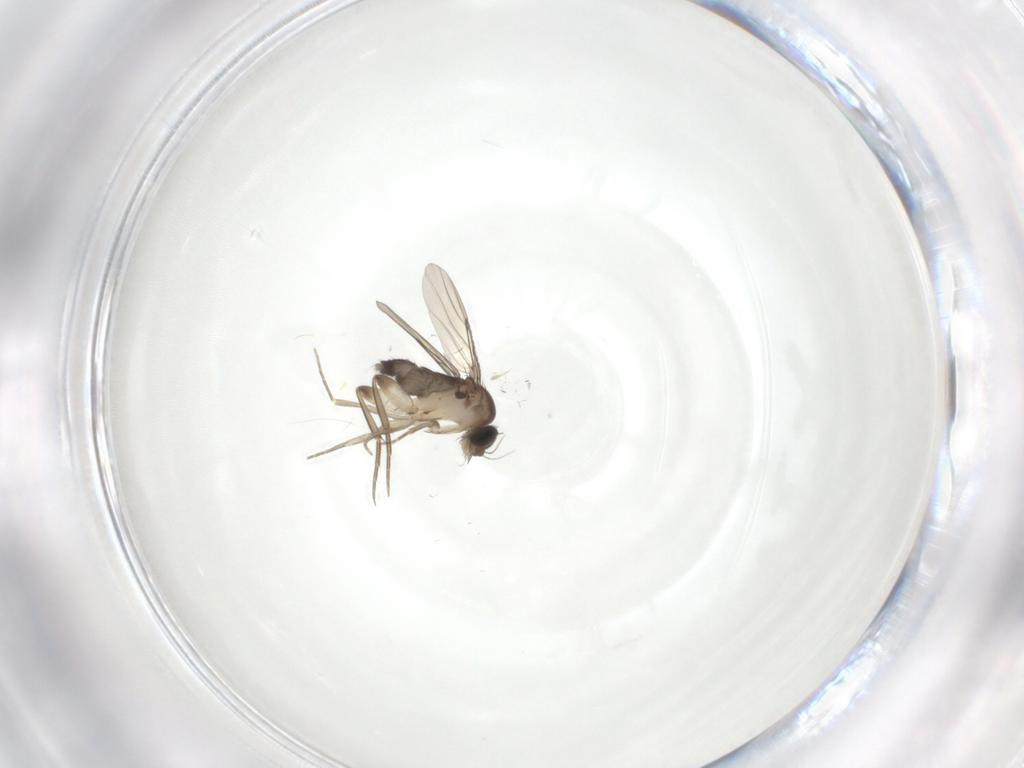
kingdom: Animalia
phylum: Arthropoda
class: Insecta
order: Diptera
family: Phoridae
